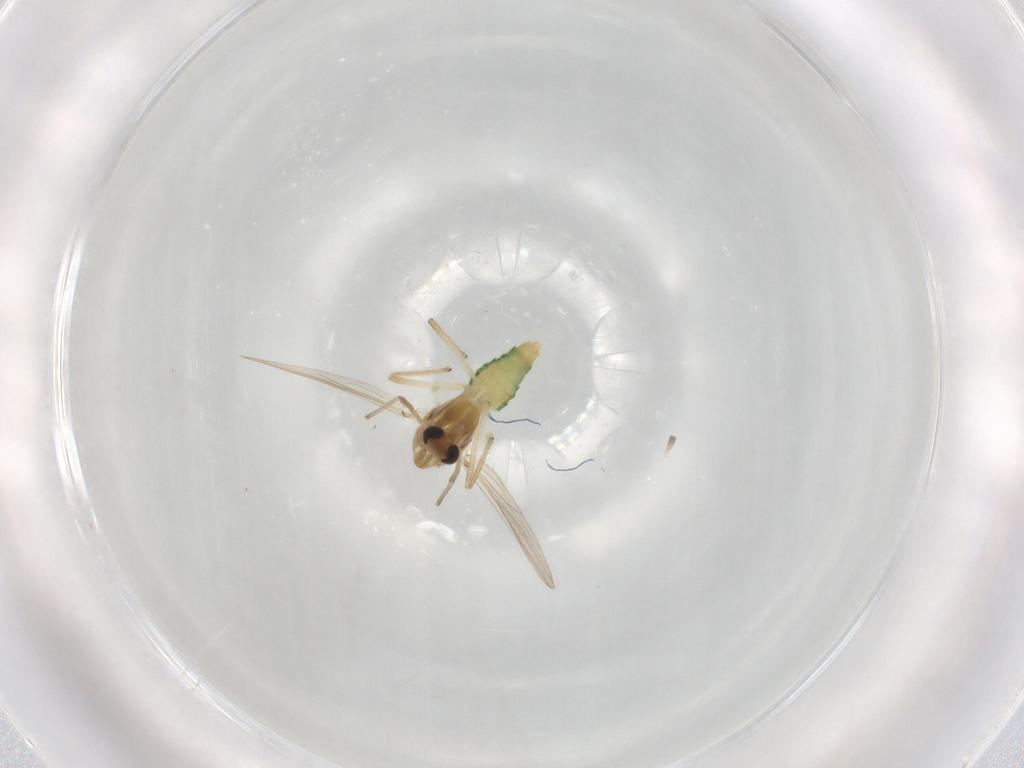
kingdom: Animalia
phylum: Arthropoda
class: Insecta
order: Diptera
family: Chironomidae
